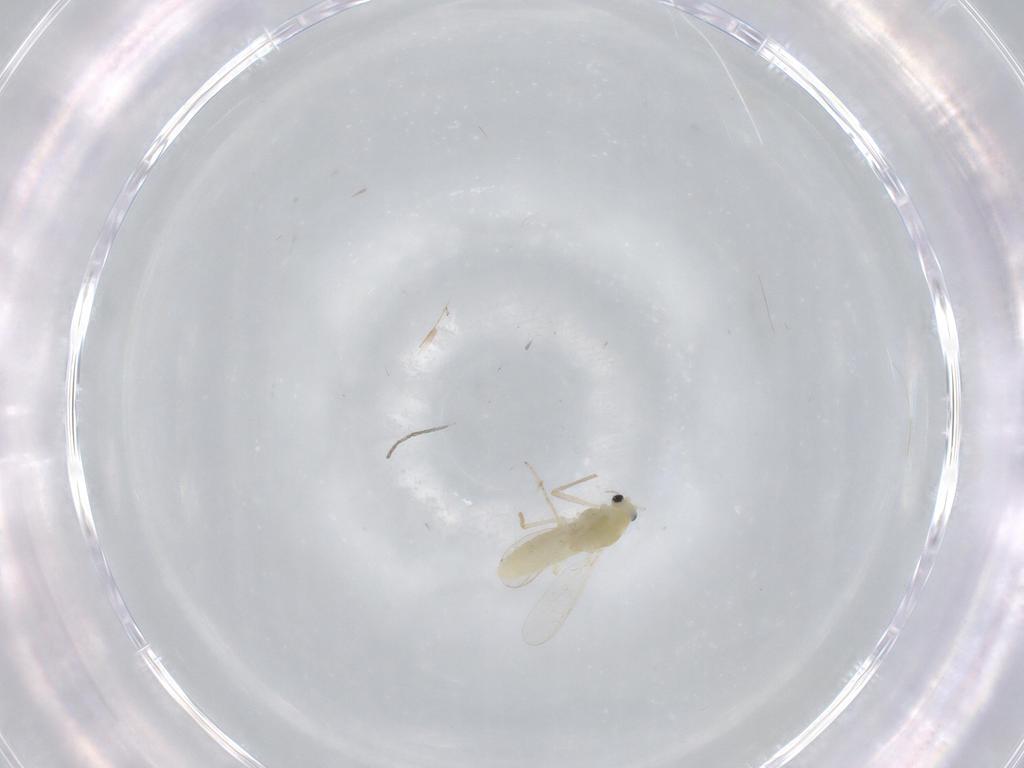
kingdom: Animalia
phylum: Arthropoda
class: Insecta
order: Diptera
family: Chironomidae
